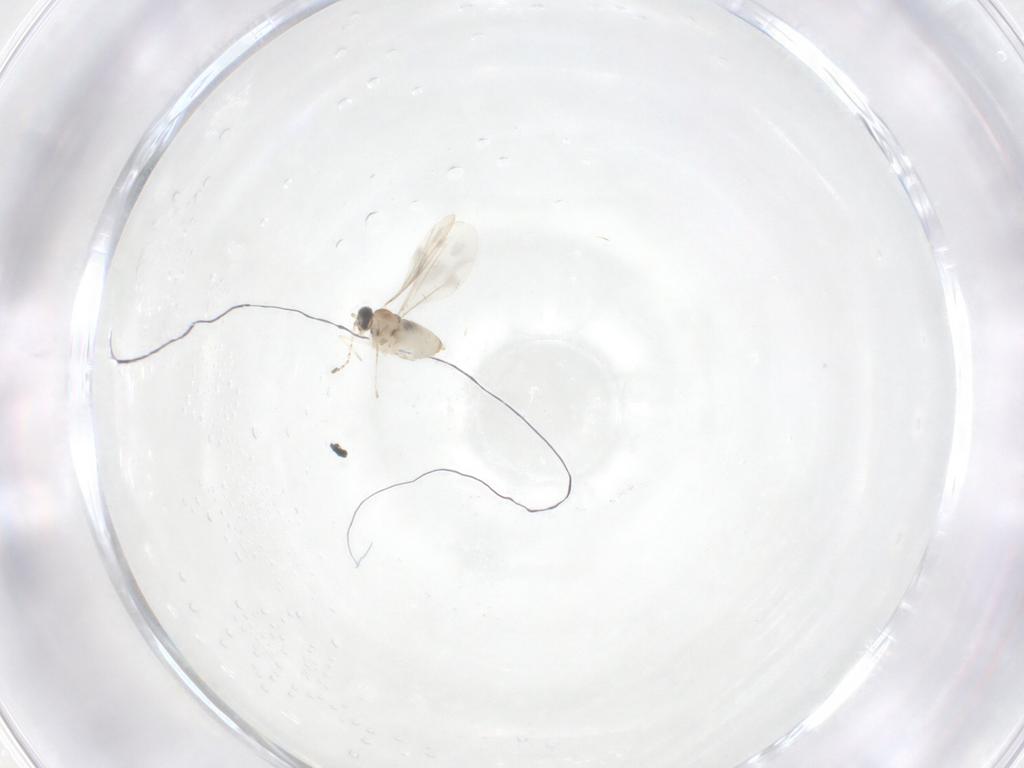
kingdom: Animalia
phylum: Arthropoda
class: Insecta
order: Diptera
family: Cecidomyiidae
